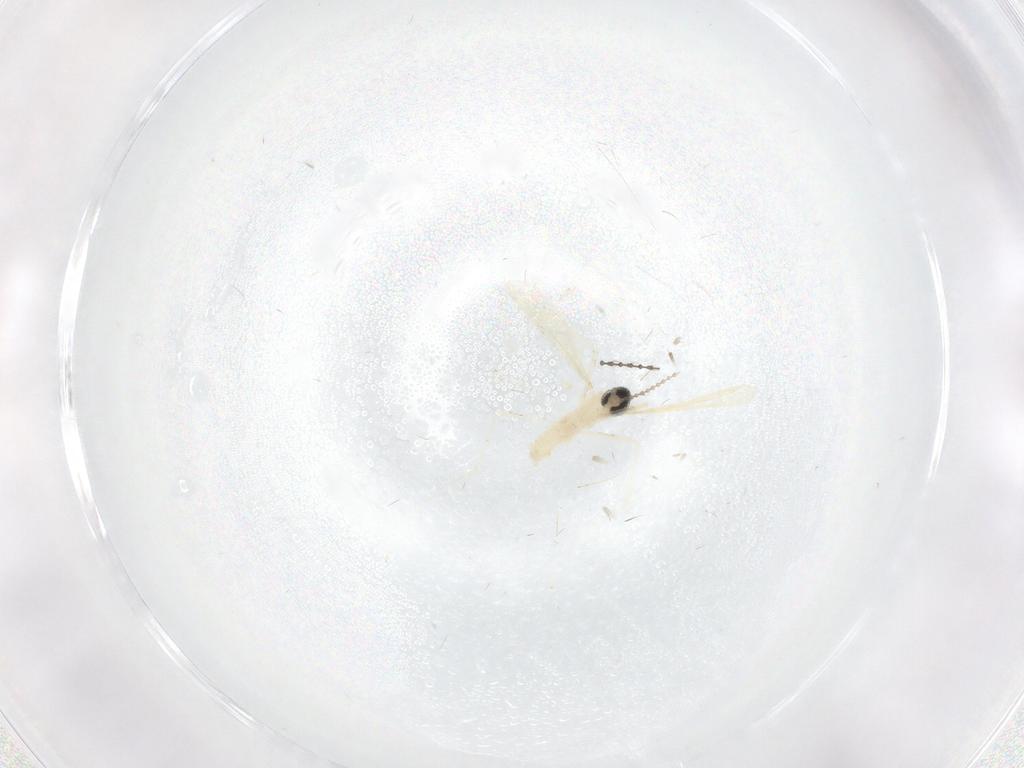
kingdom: Animalia
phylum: Arthropoda
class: Insecta
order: Diptera
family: Cecidomyiidae
